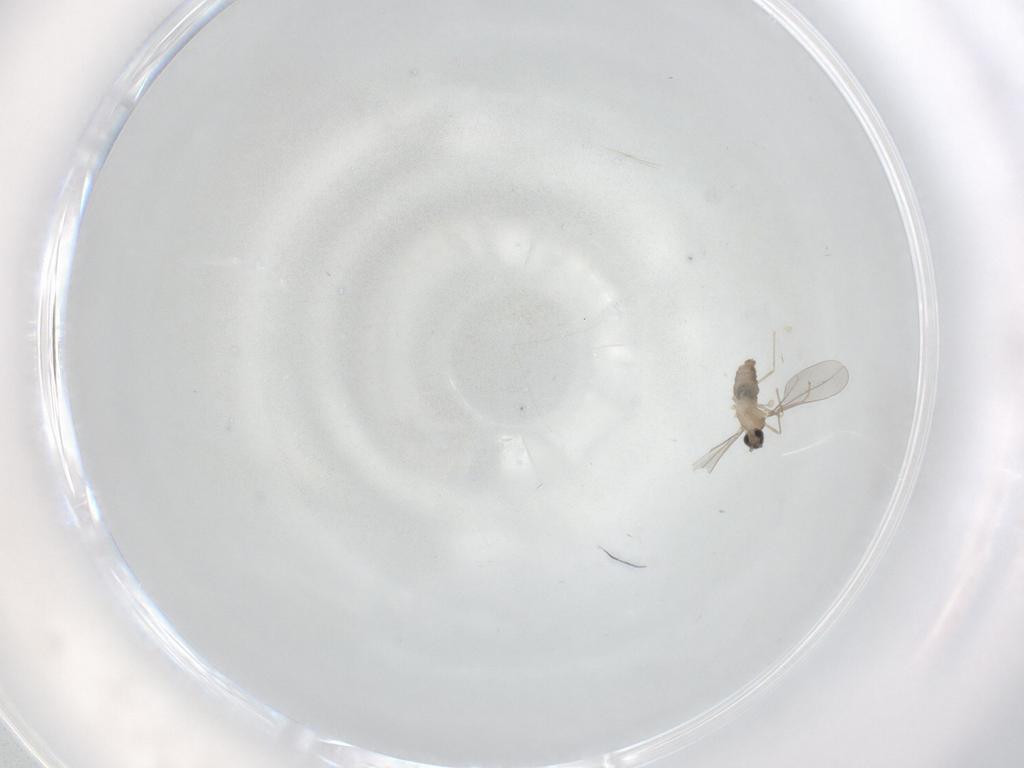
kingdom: Animalia
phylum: Arthropoda
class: Insecta
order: Diptera
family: Cecidomyiidae
